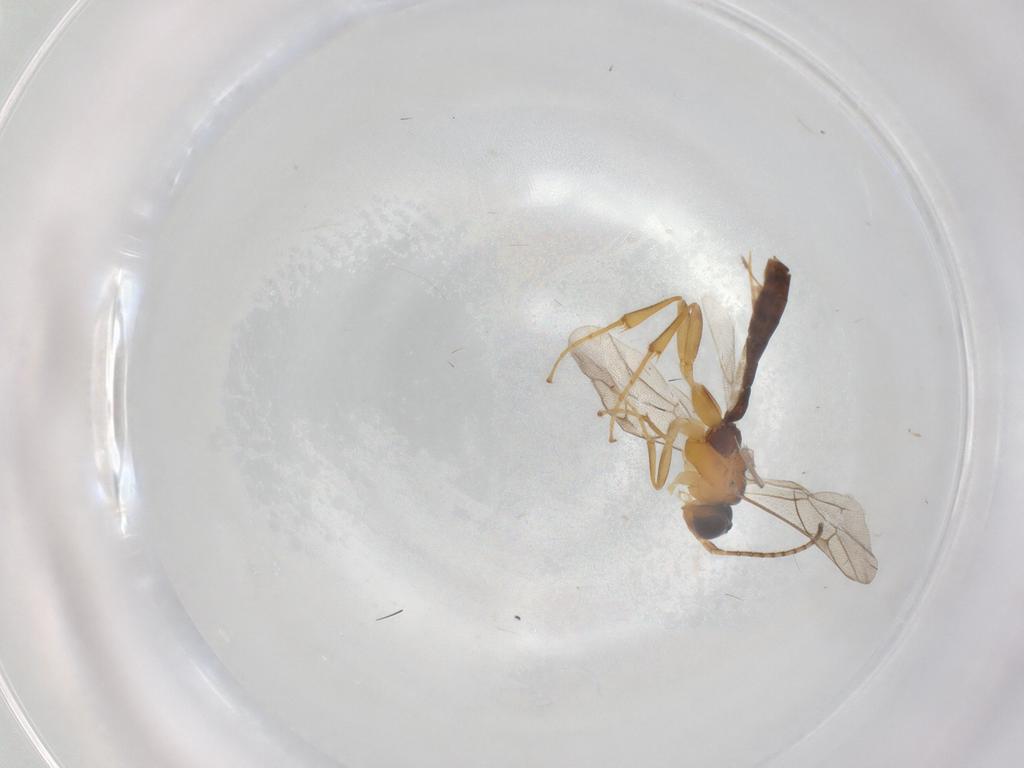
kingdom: Animalia
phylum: Arthropoda
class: Insecta
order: Hymenoptera
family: Ichneumonidae
